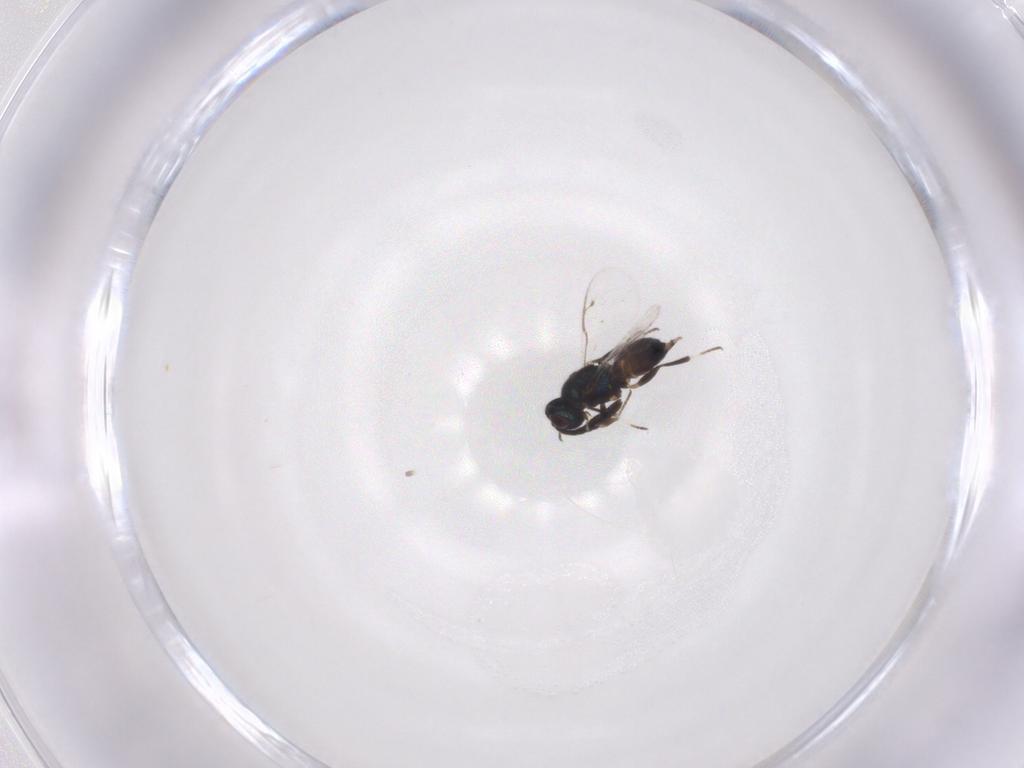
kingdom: Animalia
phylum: Arthropoda
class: Insecta
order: Hymenoptera
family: Eupelmidae
